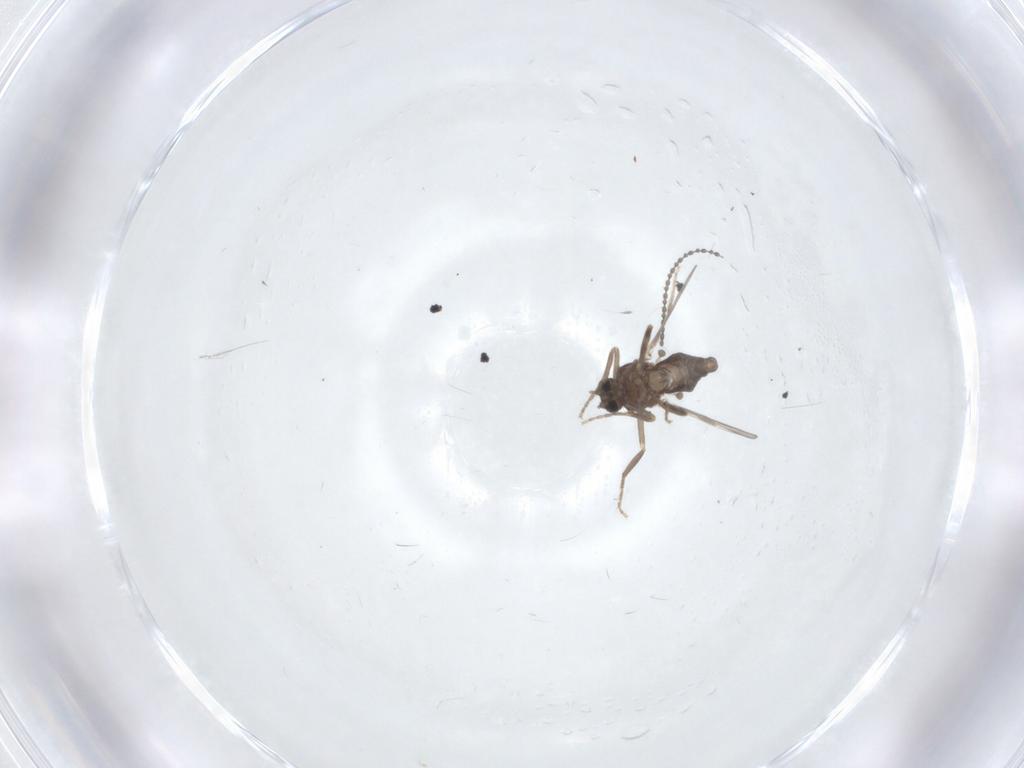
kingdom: Animalia
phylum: Arthropoda
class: Insecta
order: Diptera
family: Ceratopogonidae
